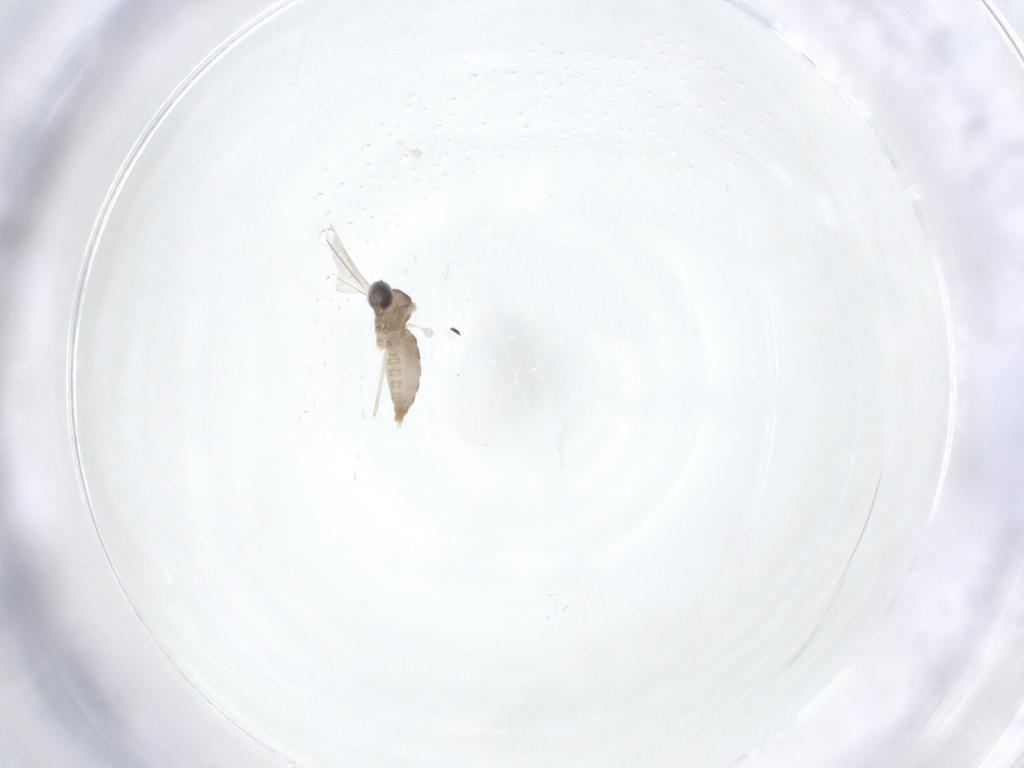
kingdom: Animalia
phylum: Arthropoda
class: Insecta
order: Diptera
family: Cecidomyiidae
